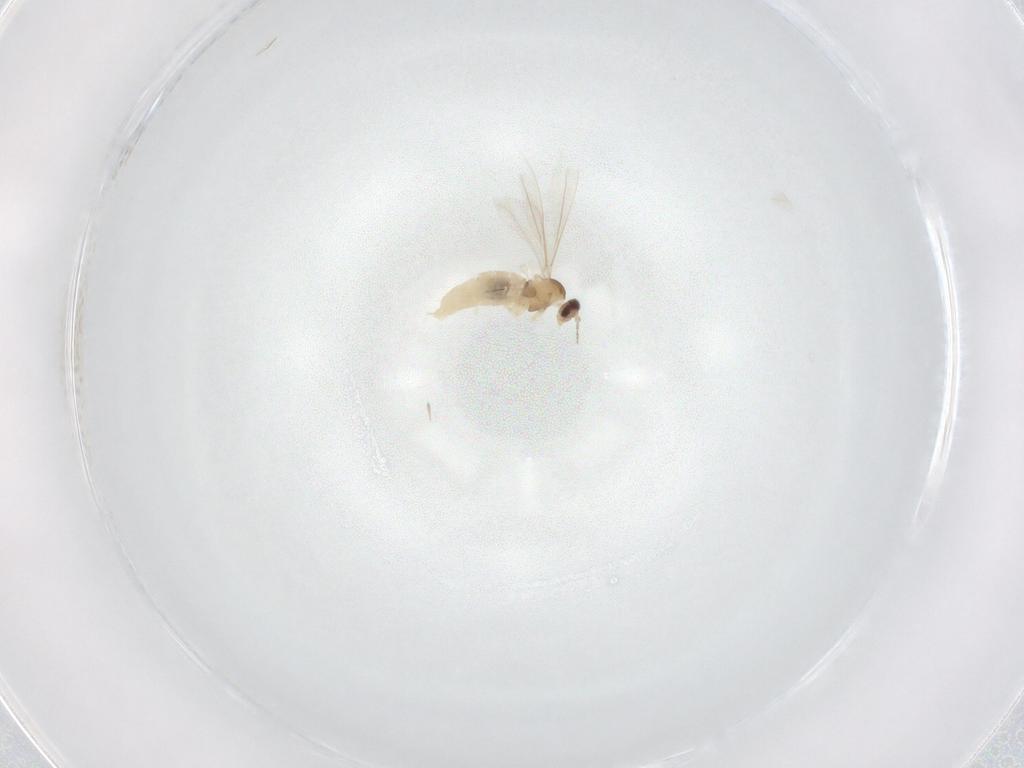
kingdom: Animalia
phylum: Arthropoda
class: Insecta
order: Diptera
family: Cecidomyiidae
